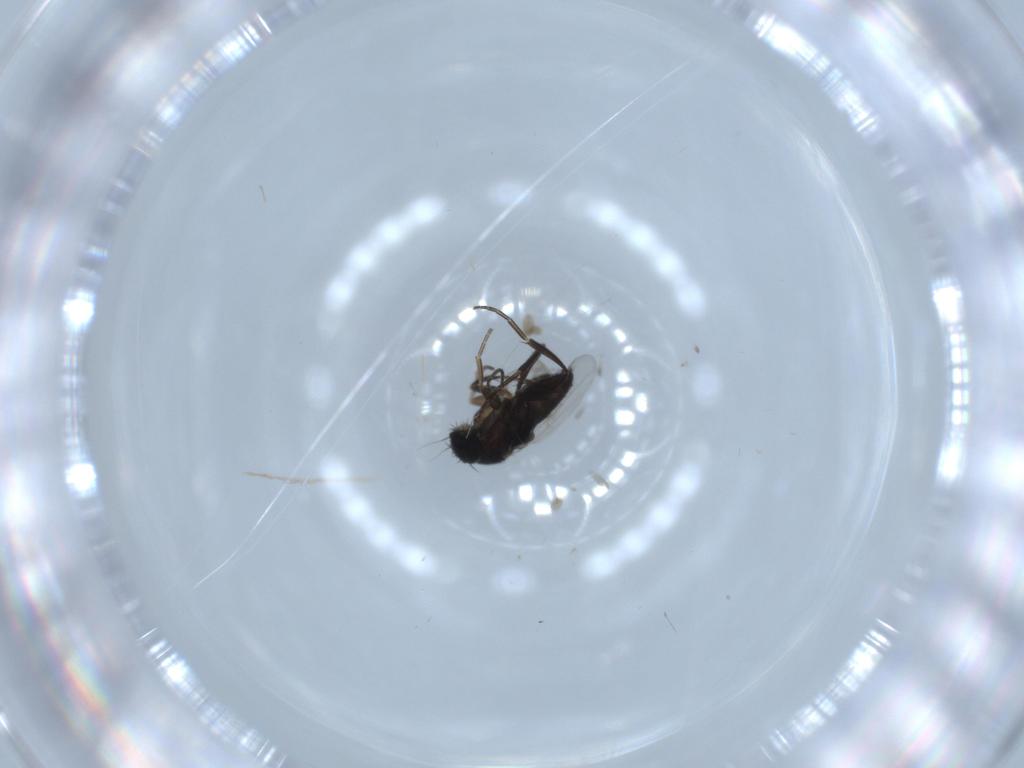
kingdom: Animalia
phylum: Arthropoda
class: Insecta
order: Diptera
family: Phoridae
